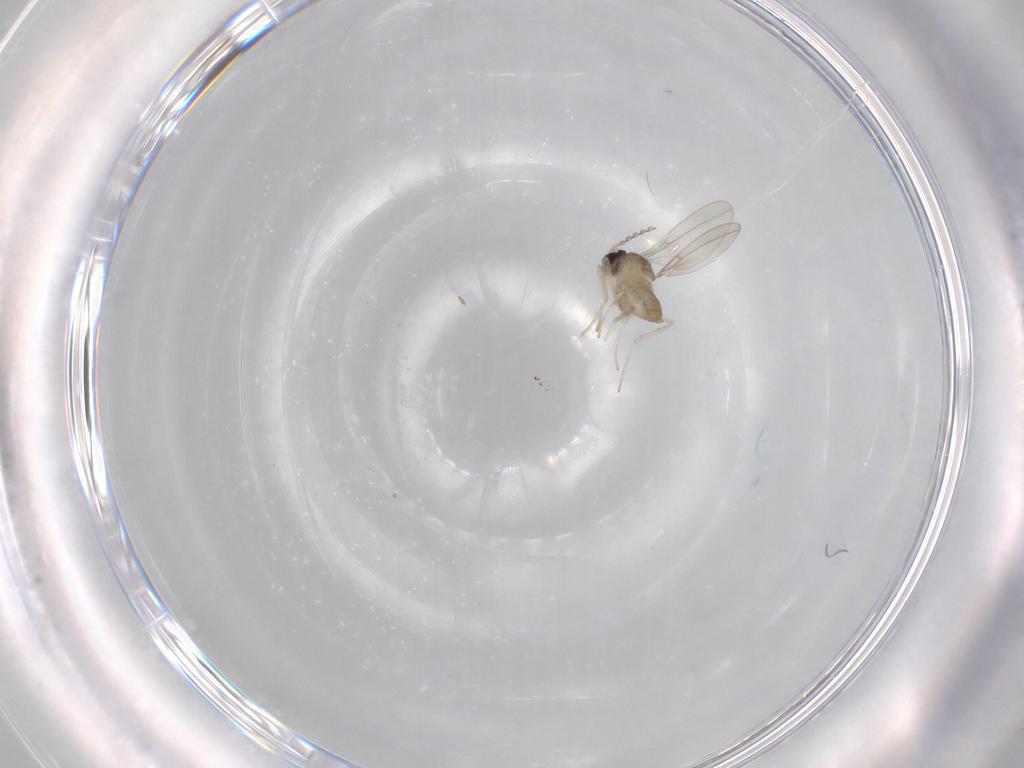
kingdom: Animalia
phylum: Arthropoda
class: Insecta
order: Diptera
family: Cecidomyiidae
